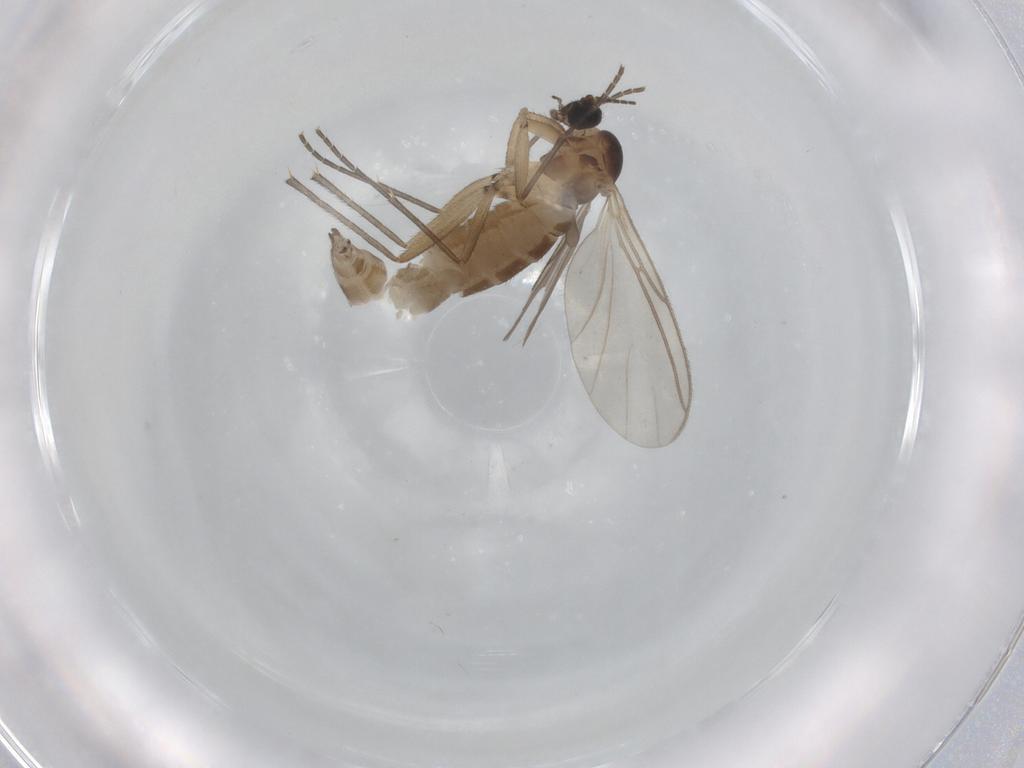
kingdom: Animalia
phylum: Arthropoda
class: Insecta
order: Diptera
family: Sciaridae
